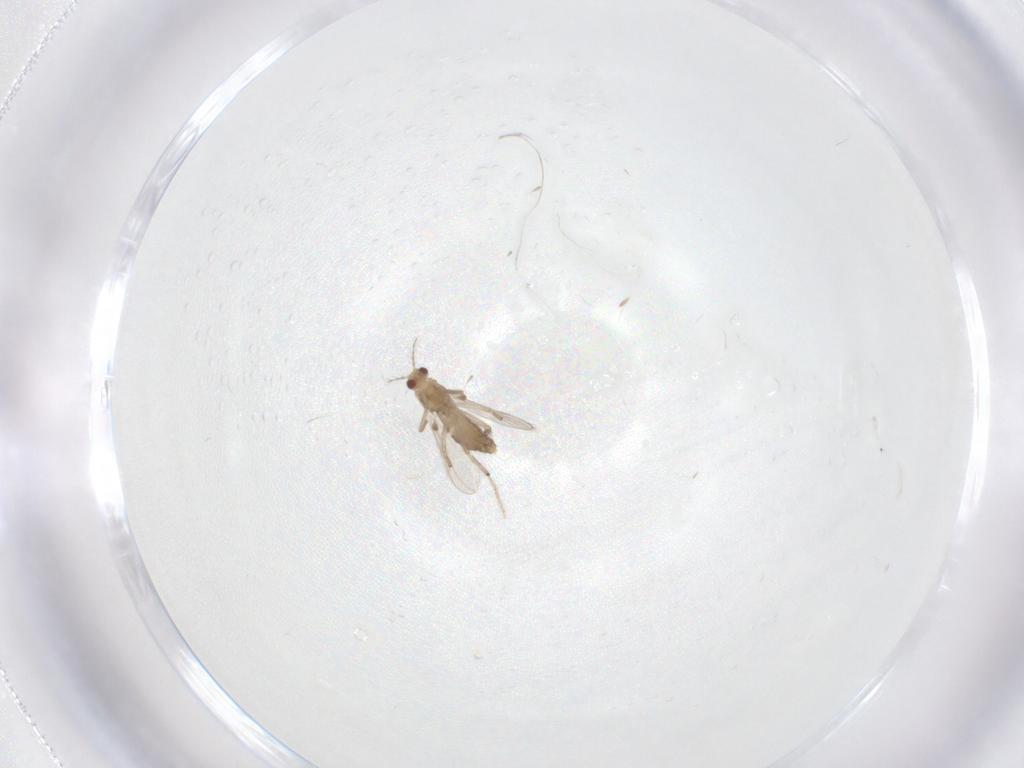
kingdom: Animalia
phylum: Arthropoda
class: Insecta
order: Diptera
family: Chironomidae
